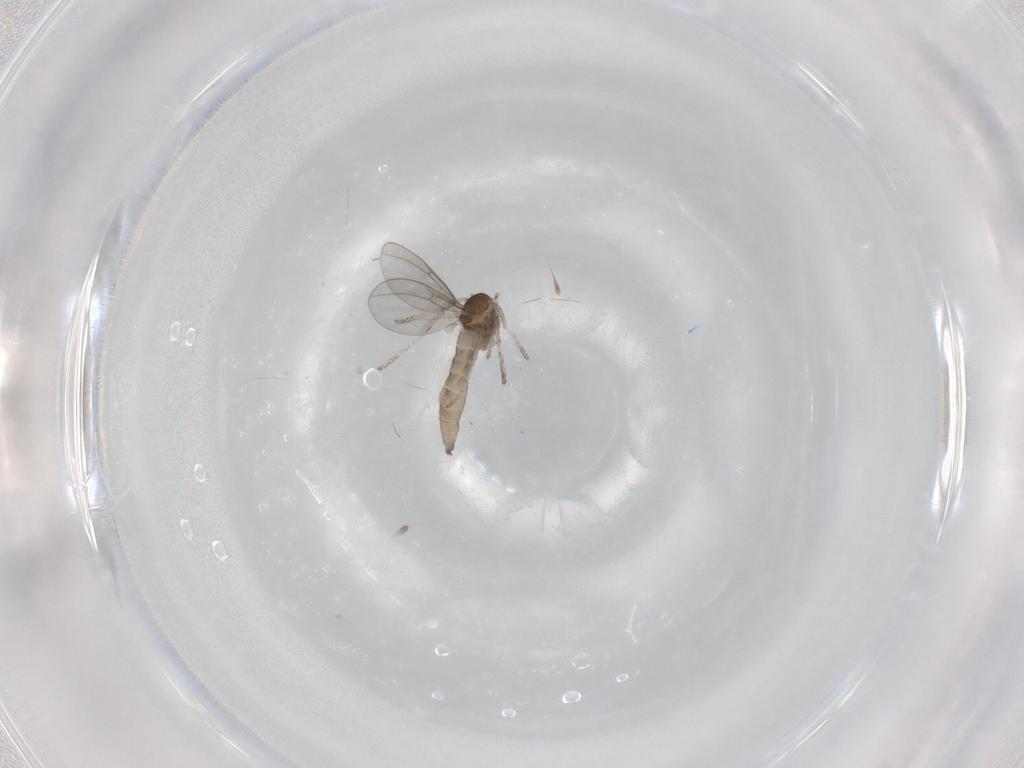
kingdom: Animalia
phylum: Arthropoda
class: Insecta
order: Diptera
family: Cecidomyiidae
